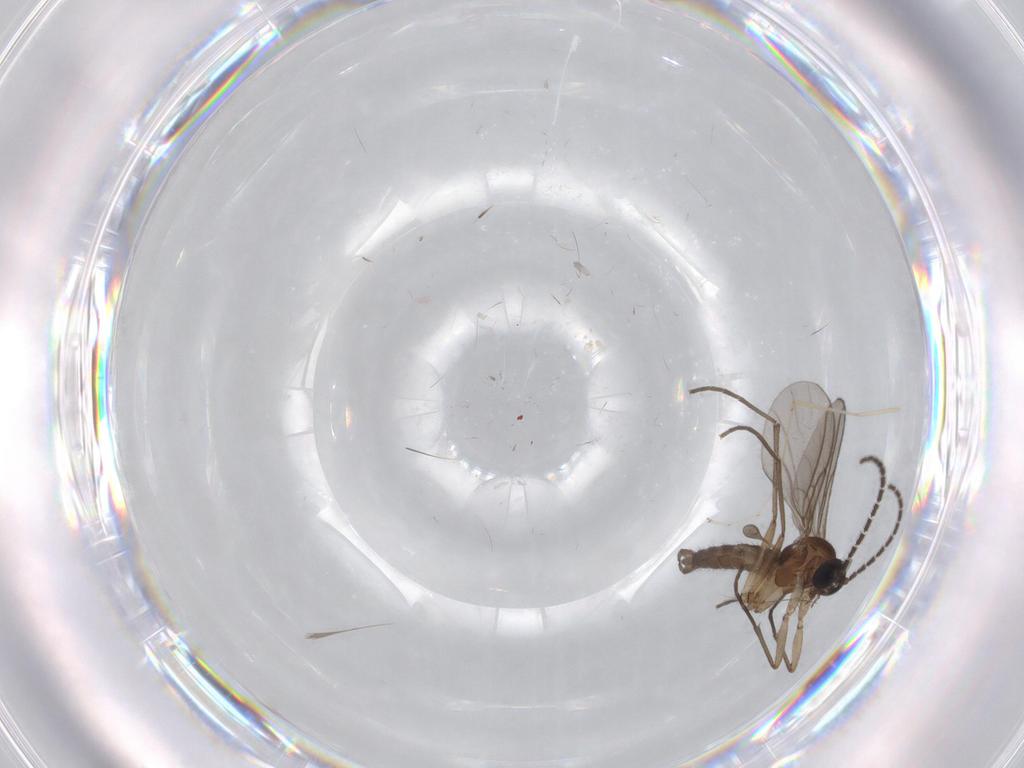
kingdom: Animalia
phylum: Arthropoda
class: Insecta
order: Diptera
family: Sciaridae
